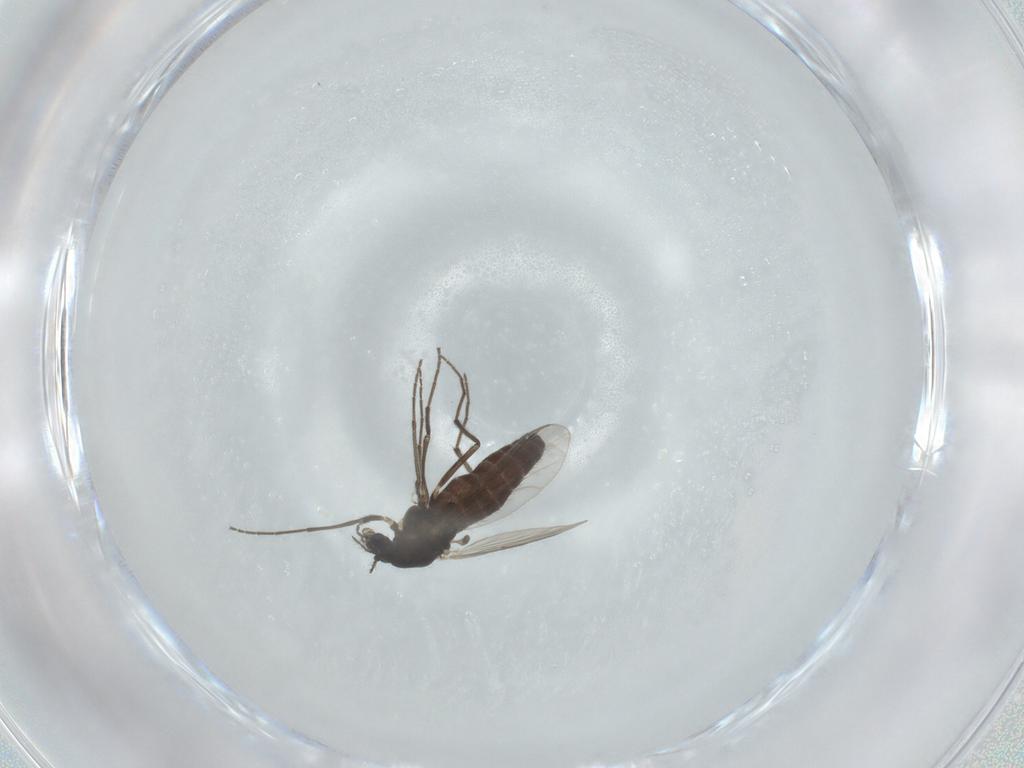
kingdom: Animalia
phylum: Arthropoda
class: Insecta
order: Diptera
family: Chironomidae
